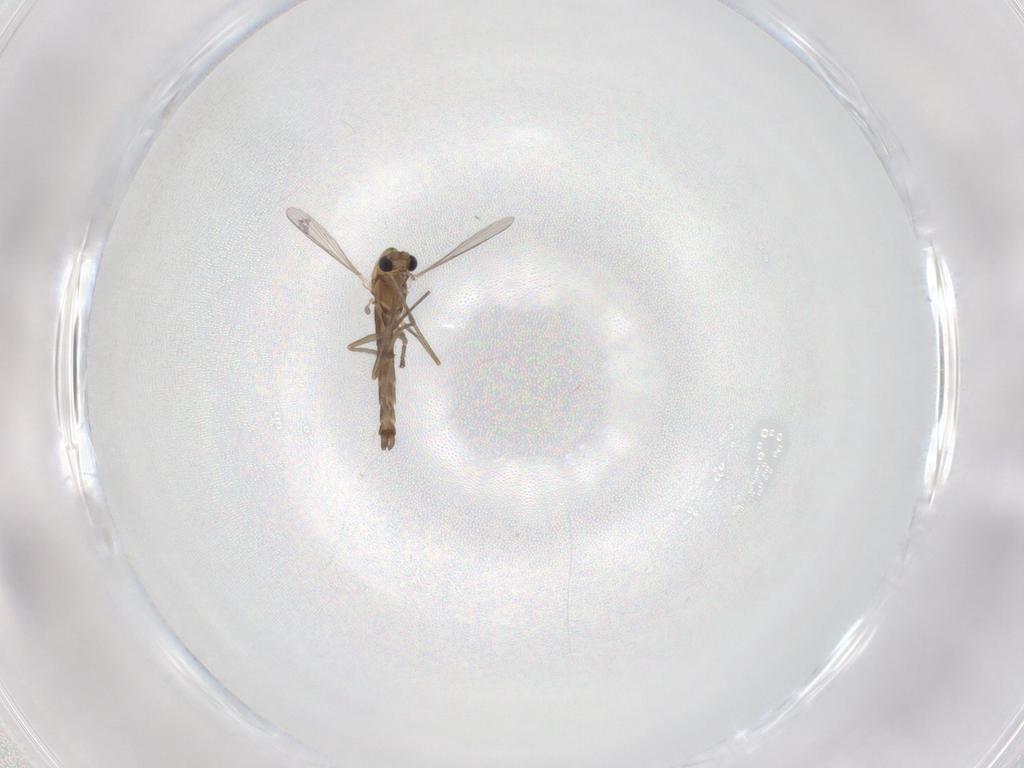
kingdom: Animalia
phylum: Arthropoda
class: Insecta
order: Diptera
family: Chironomidae
